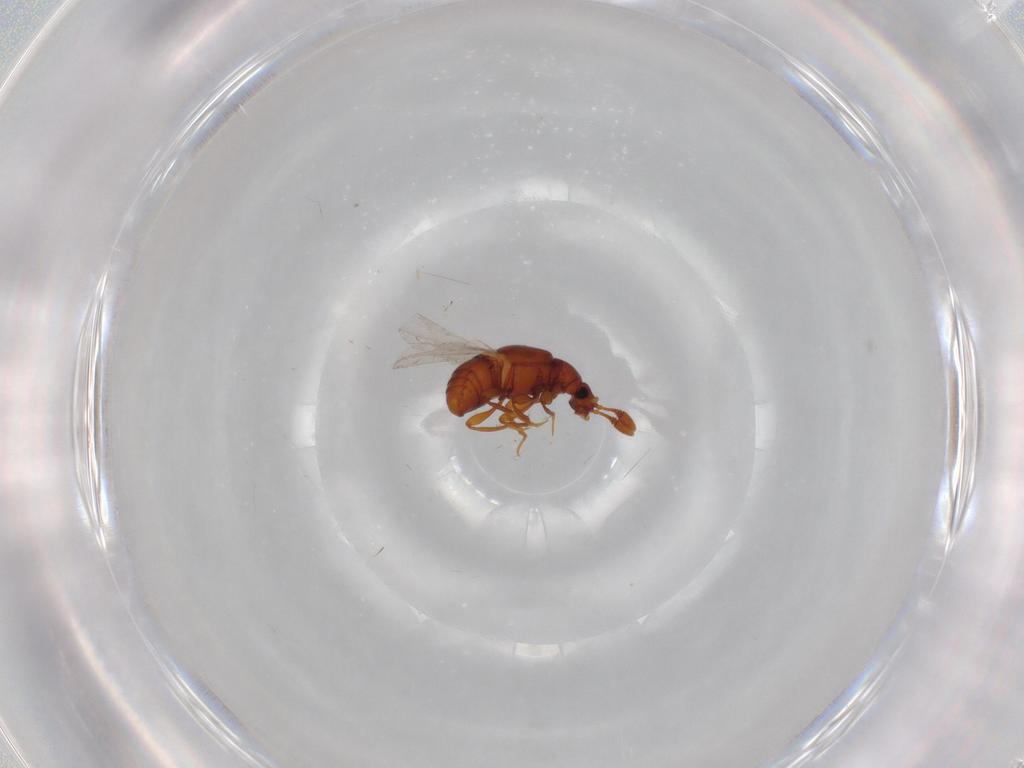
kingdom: Animalia
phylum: Arthropoda
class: Insecta
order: Coleoptera
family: Staphylinidae
